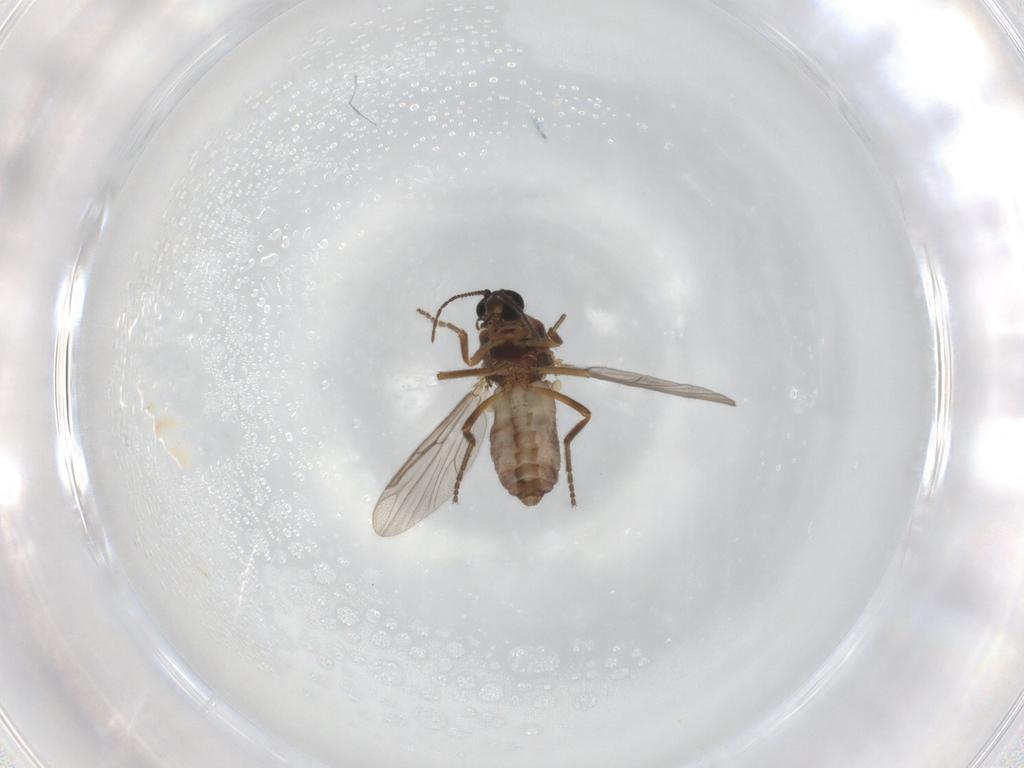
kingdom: Animalia
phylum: Arthropoda
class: Insecta
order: Diptera
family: Ceratopogonidae
